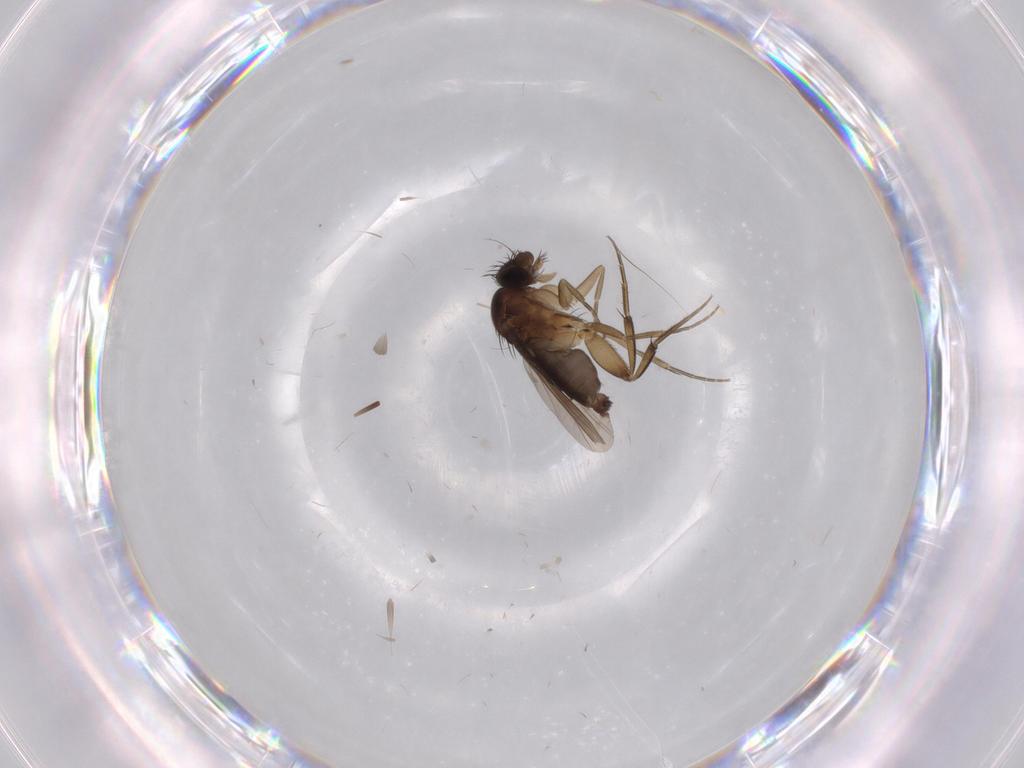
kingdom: Animalia
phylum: Arthropoda
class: Insecta
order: Diptera
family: Phoridae
